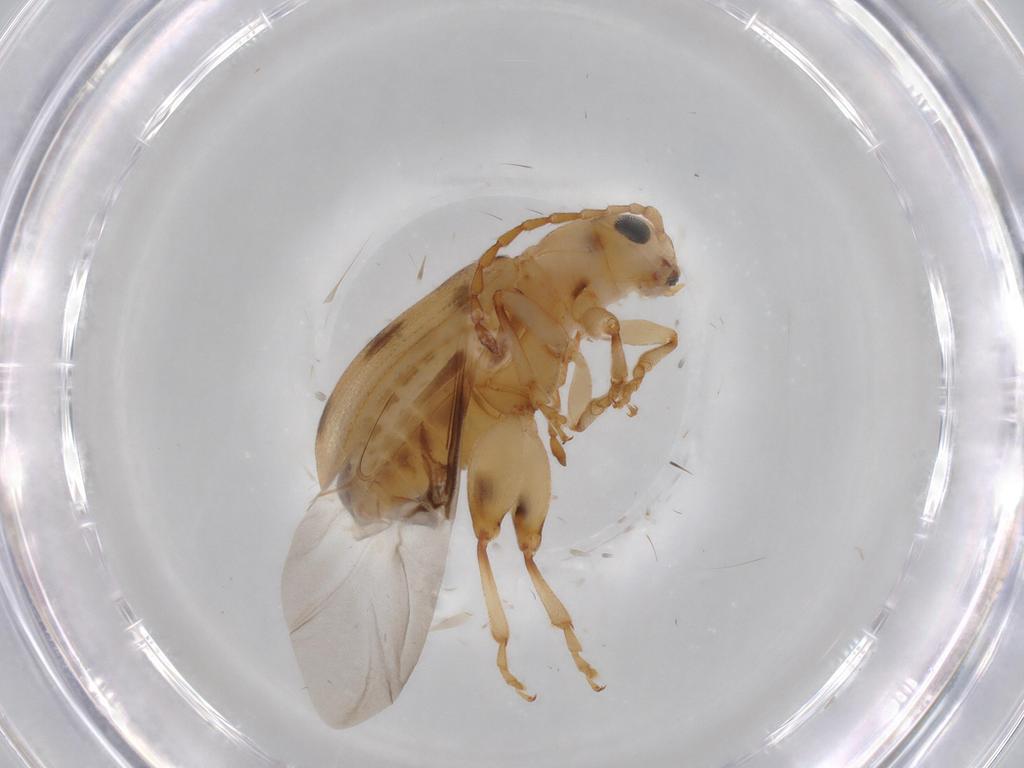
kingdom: Animalia
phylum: Arthropoda
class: Insecta
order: Coleoptera
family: Chrysomelidae
